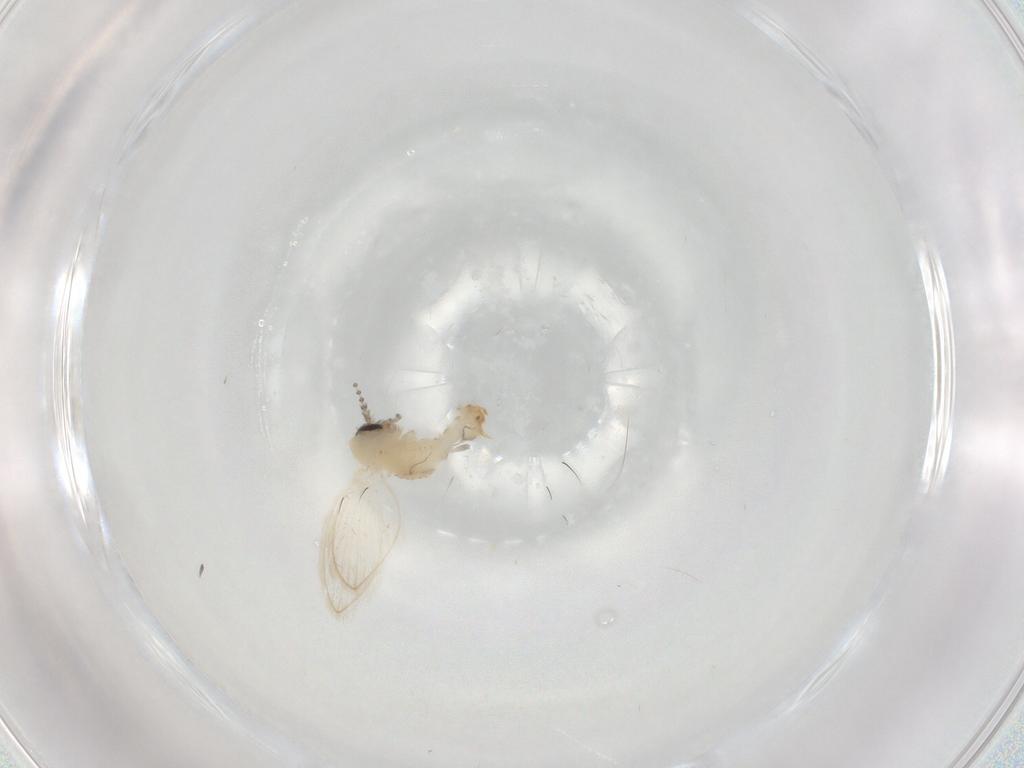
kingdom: Animalia
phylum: Arthropoda
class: Insecta
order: Diptera
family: Psychodidae
